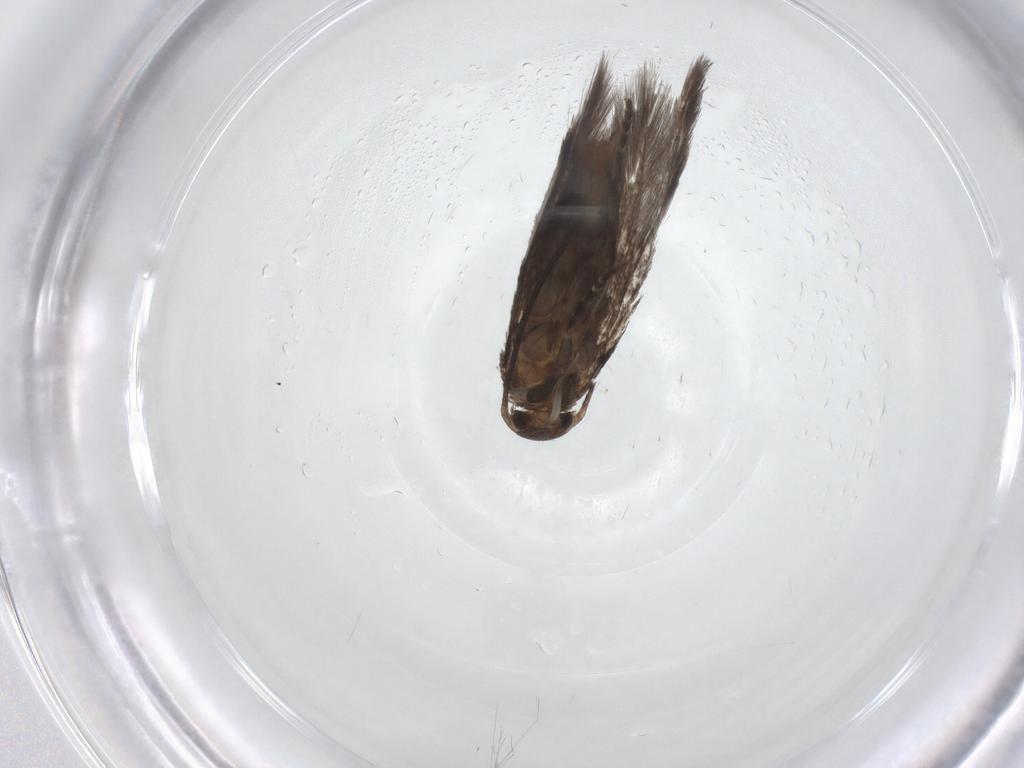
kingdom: Animalia
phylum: Arthropoda
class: Insecta
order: Lepidoptera
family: Elachistidae
